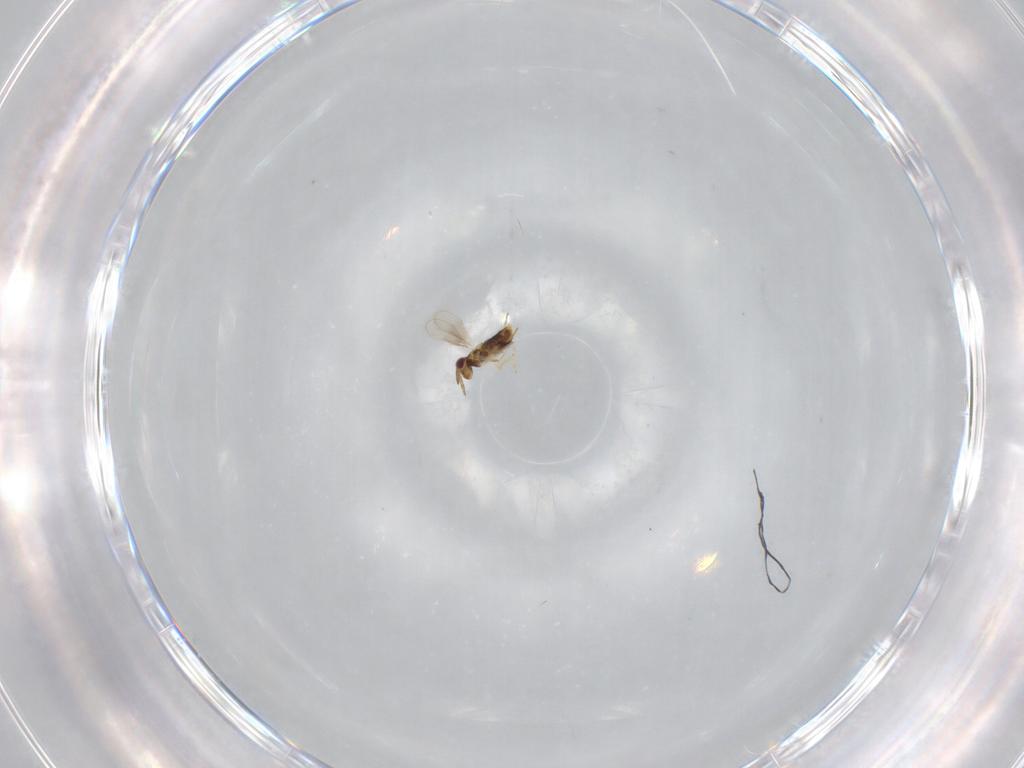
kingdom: Animalia
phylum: Arthropoda
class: Insecta
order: Hymenoptera
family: Aphelinidae
